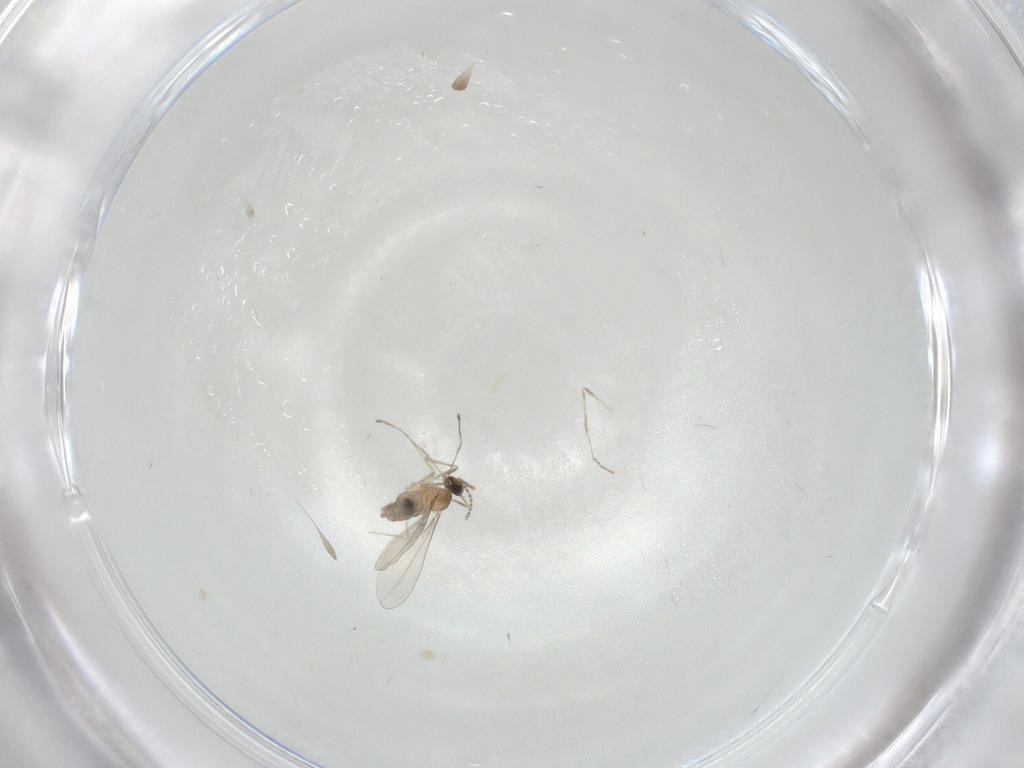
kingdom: Animalia
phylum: Arthropoda
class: Insecta
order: Diptera
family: Cecidomyiidae
